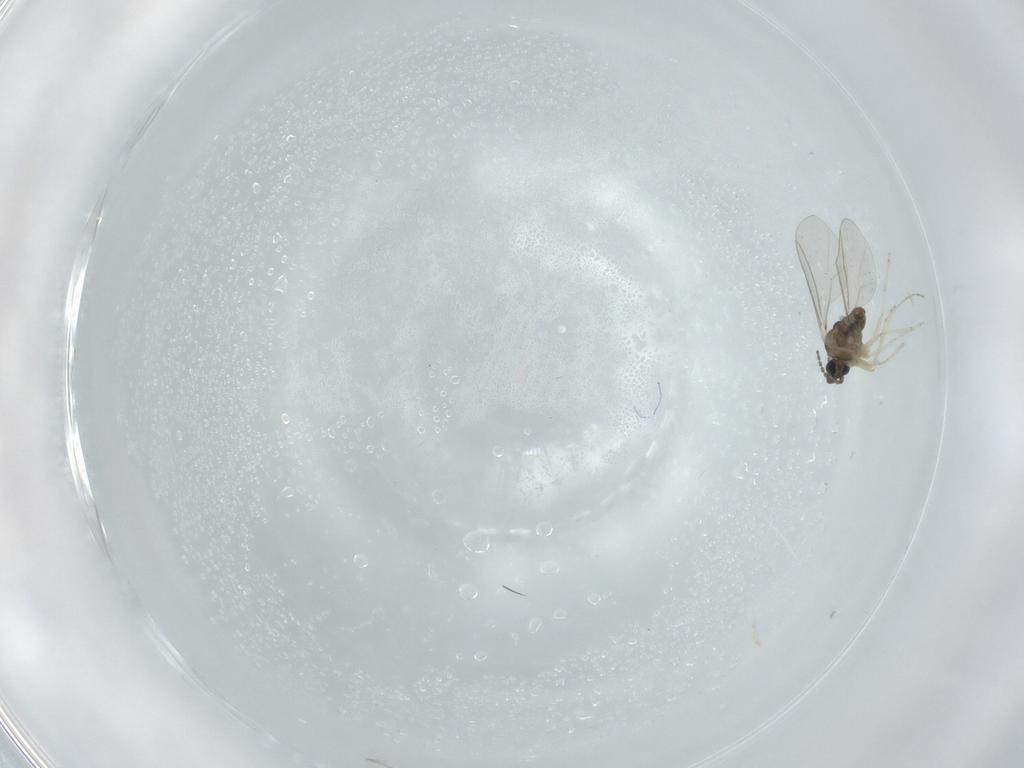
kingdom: Animalia
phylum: Arthropoda
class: Insecta
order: Diptera
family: Cecidomyiidae
